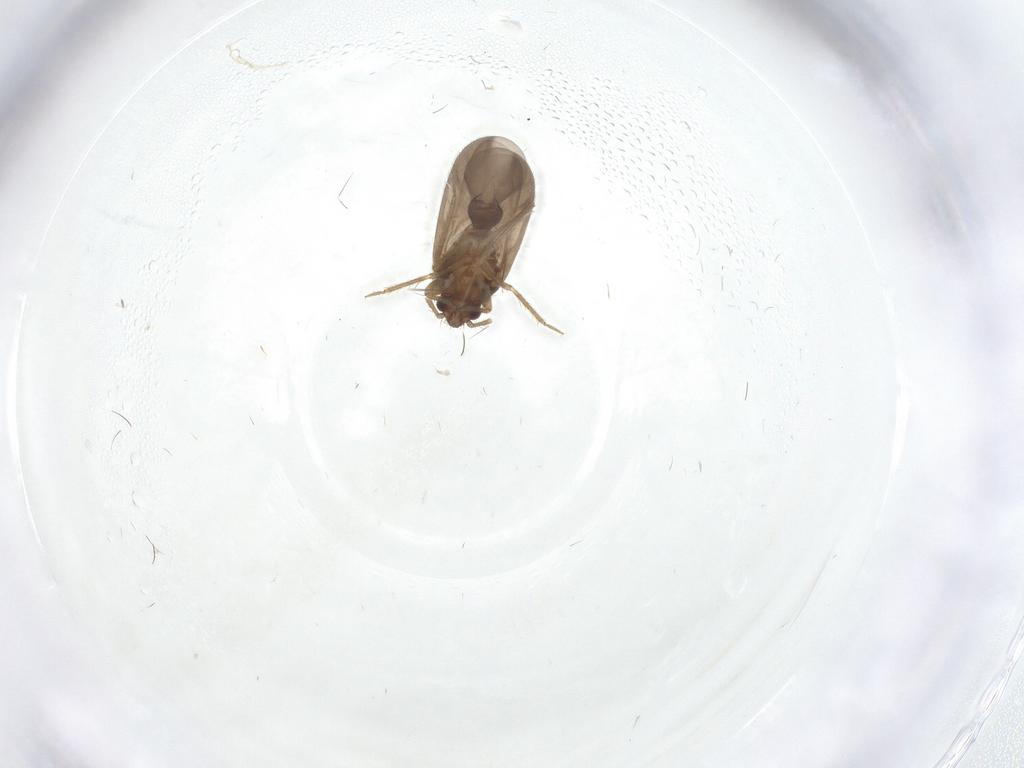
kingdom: Animalia
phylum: Arthropoda
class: Insecta
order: Hemiptera
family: Ceratocombidae
